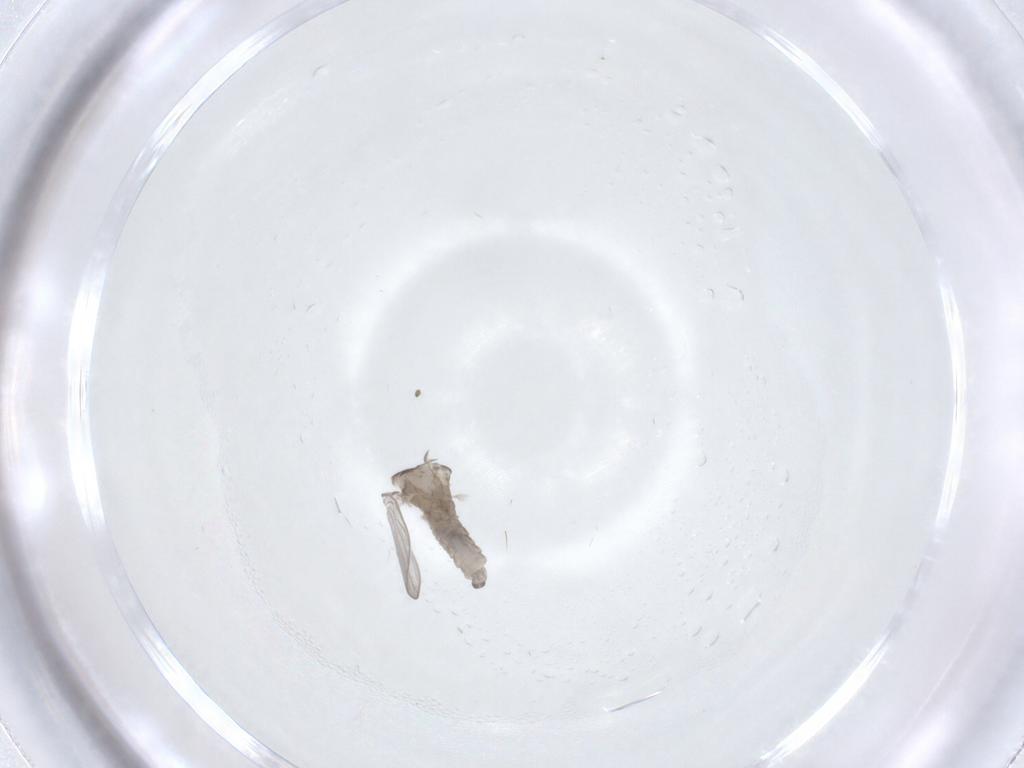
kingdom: Animalia
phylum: Arthropoda
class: Insecta
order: Diptera
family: Psychodidae
